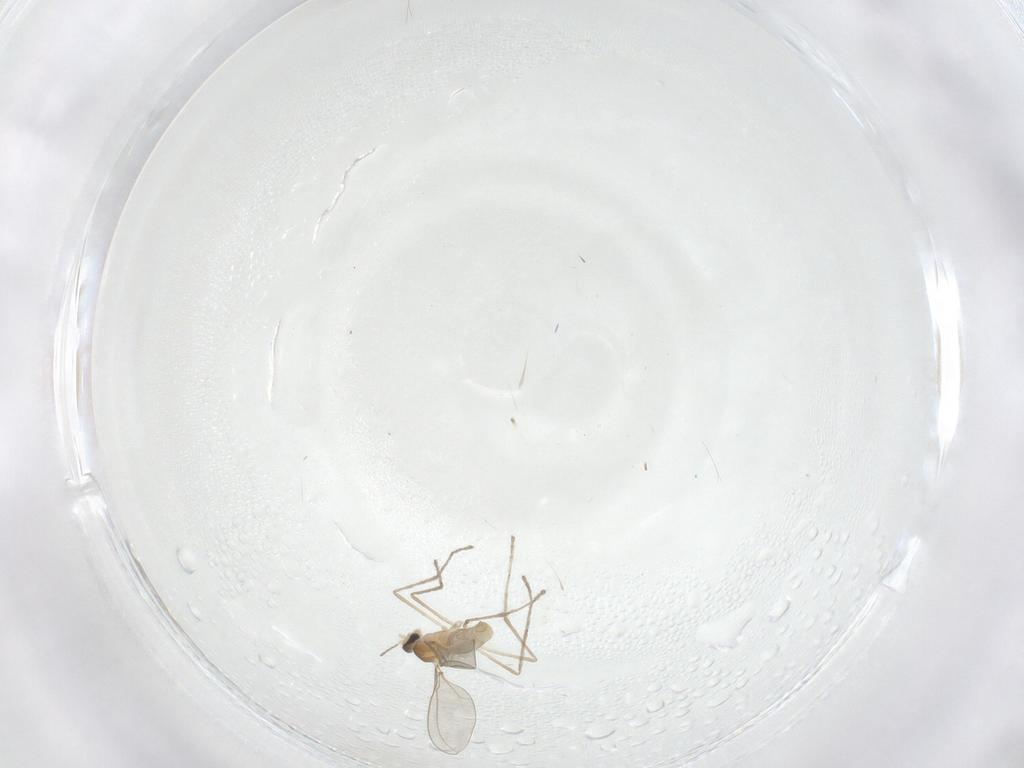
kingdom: Animalia
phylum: Arthropoda
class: Insecta
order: Diptera
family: Cecidomyiidae
